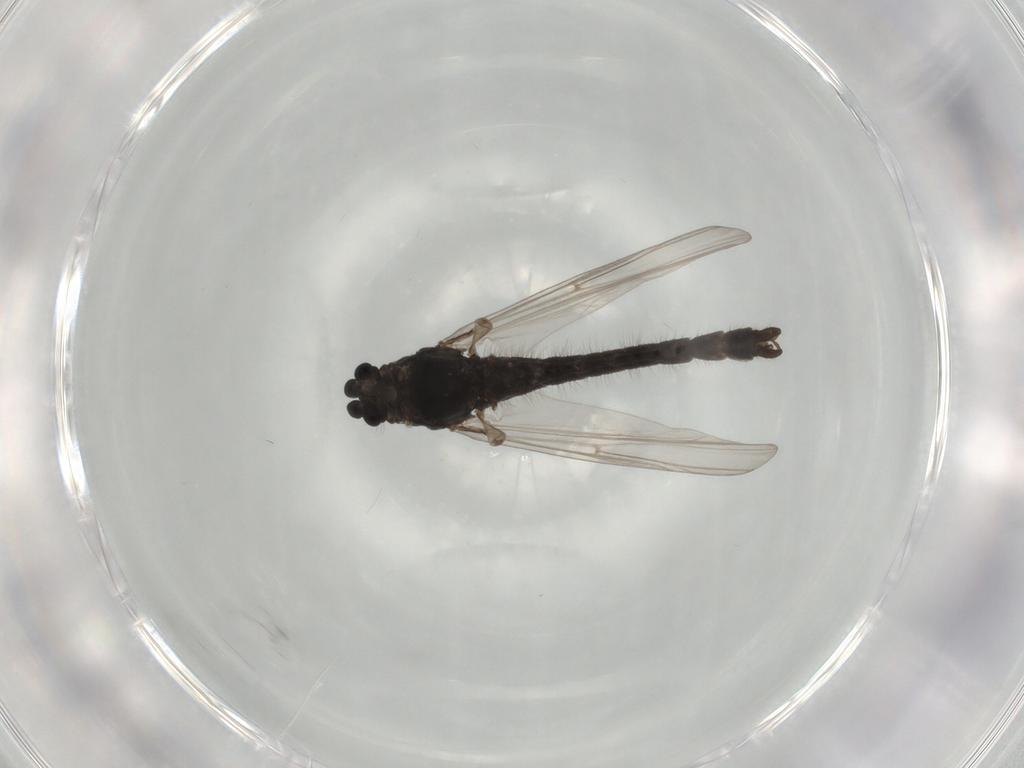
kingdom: Animalia
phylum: Arthropoda
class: Insecta
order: Diptera
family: Chironomidae
